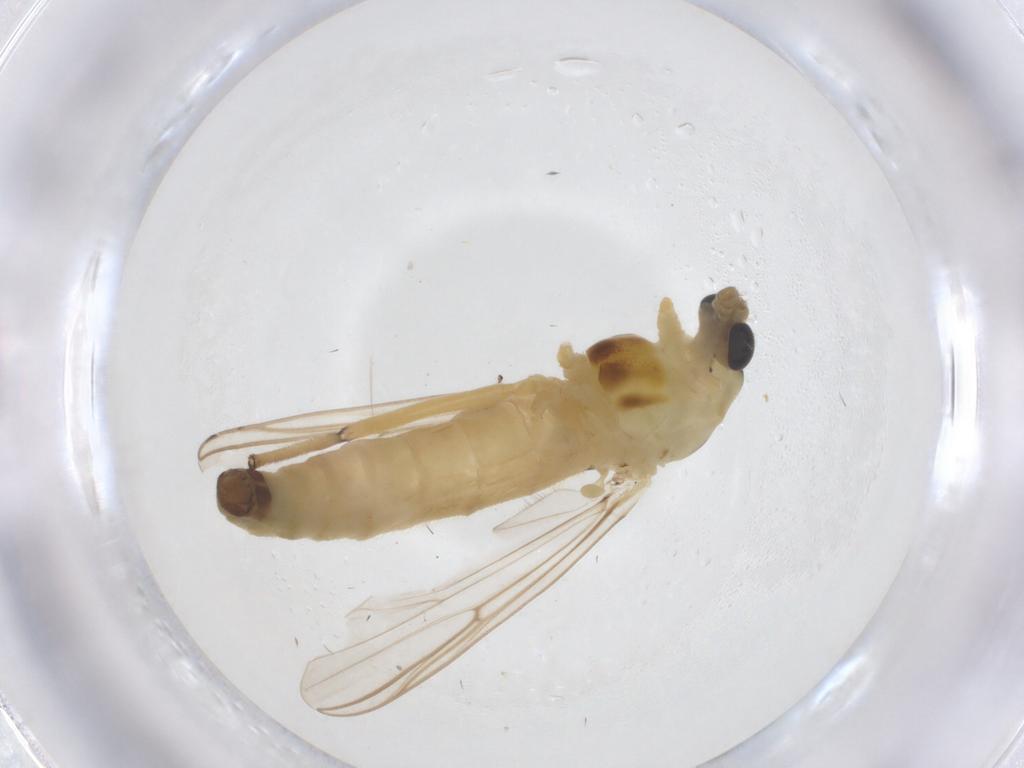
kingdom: Animalia
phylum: Arthropoda
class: Insecta
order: Diptera
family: Chironomidae
